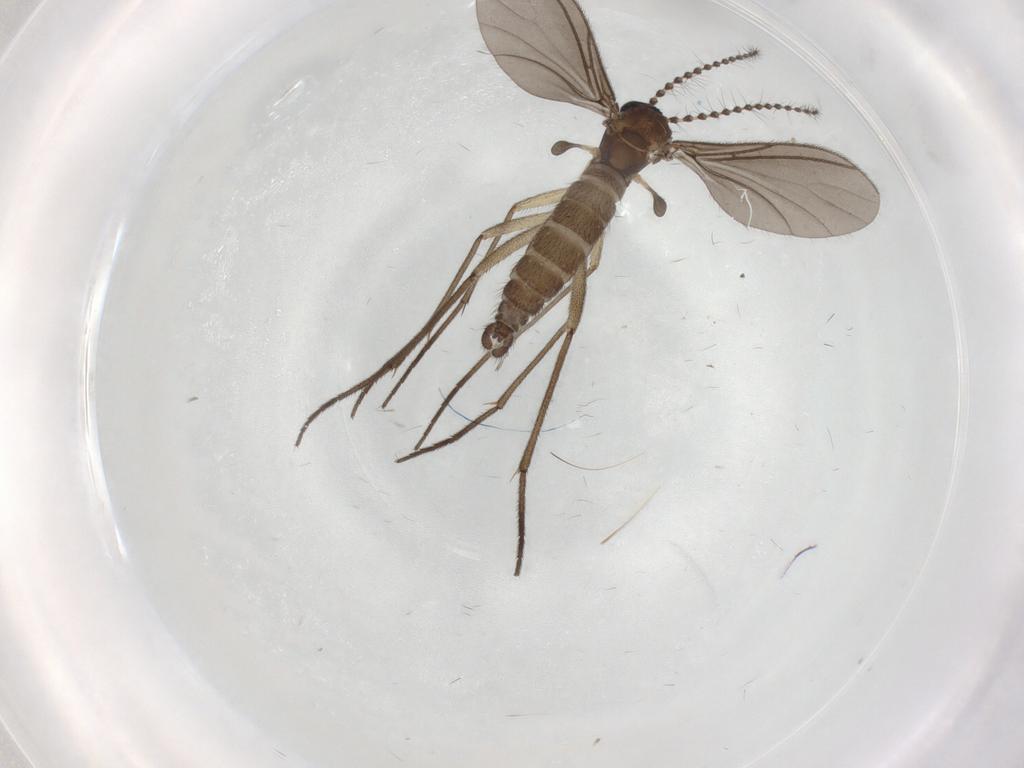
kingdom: Animalia
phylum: Arthropoda
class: Insecta
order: Diptera
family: Sciaridae
